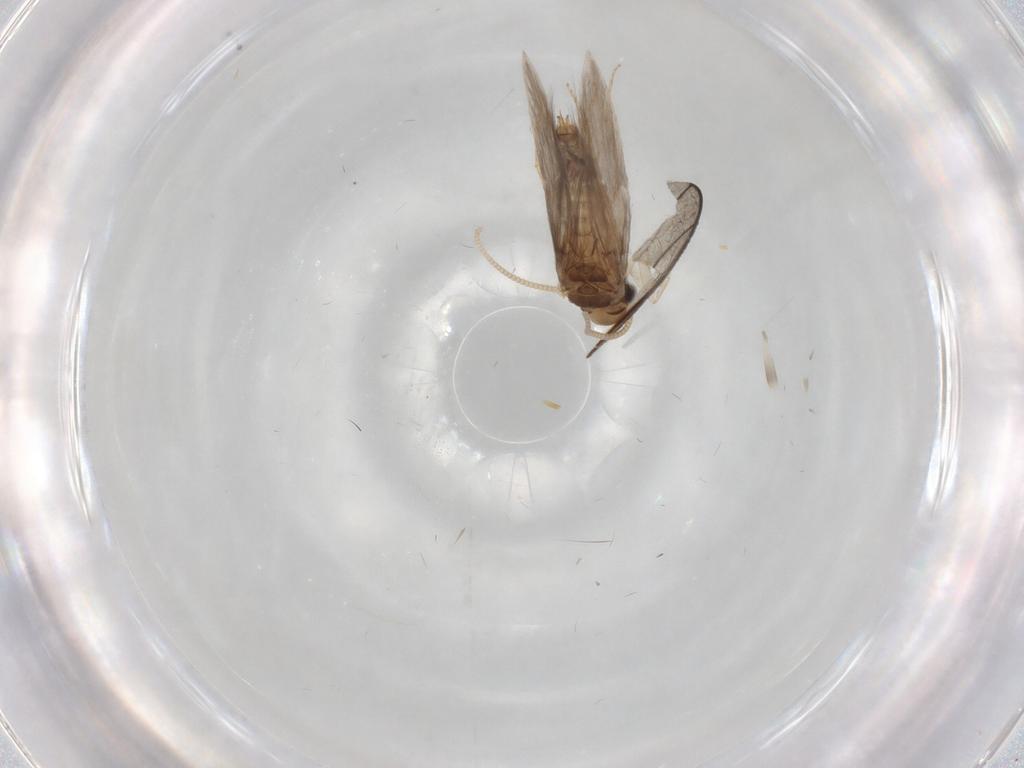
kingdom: Animalia
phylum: Arthropoda
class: Insecta
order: Trichoptera
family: Hydroptilidae
